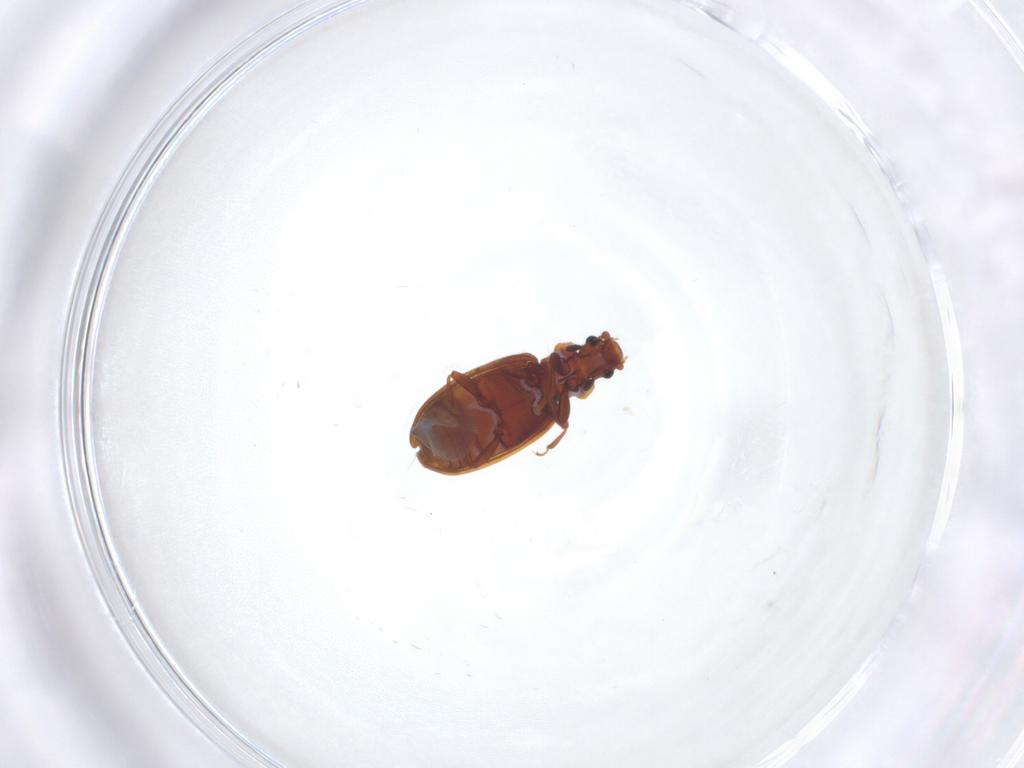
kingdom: Animalia
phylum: Arthropoda
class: Insecta
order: Coleoptera
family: Latridiidae
